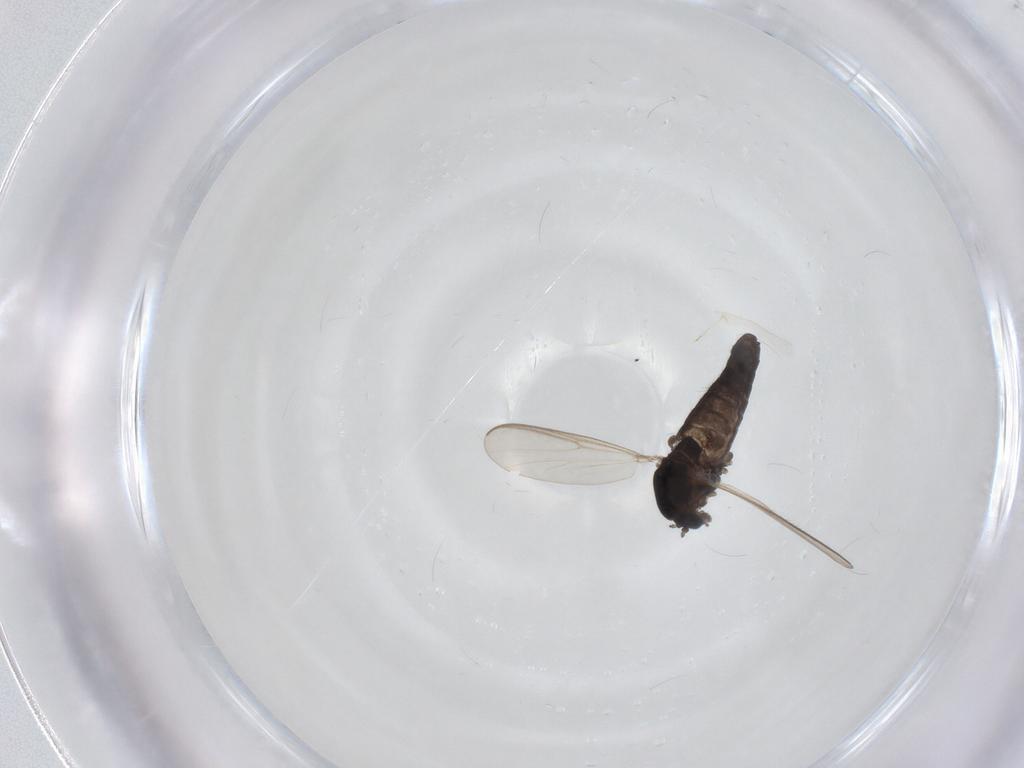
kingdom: Animalia
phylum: Arthropoda
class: Insecta
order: Diptera
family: Chironomidae
